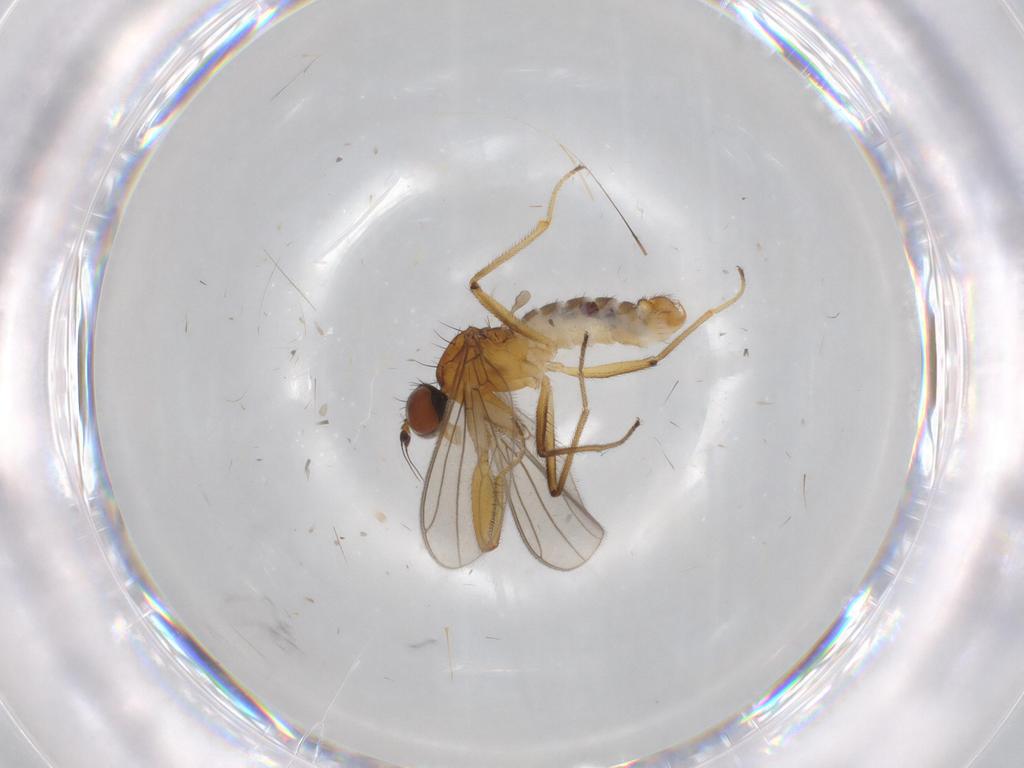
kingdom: Animalia
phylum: Arthropoda
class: Insecta
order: Diptera
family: Empididae
